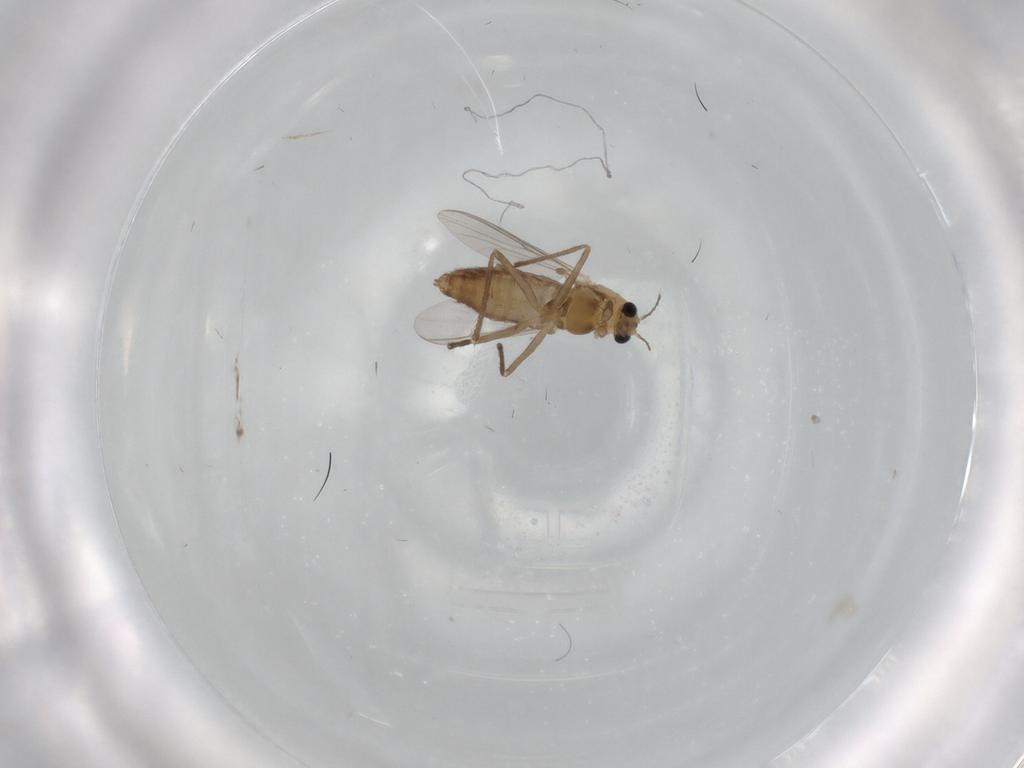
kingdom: Animalia
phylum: Arthropoda
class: Insecta
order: Diptera
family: Chironomidae
